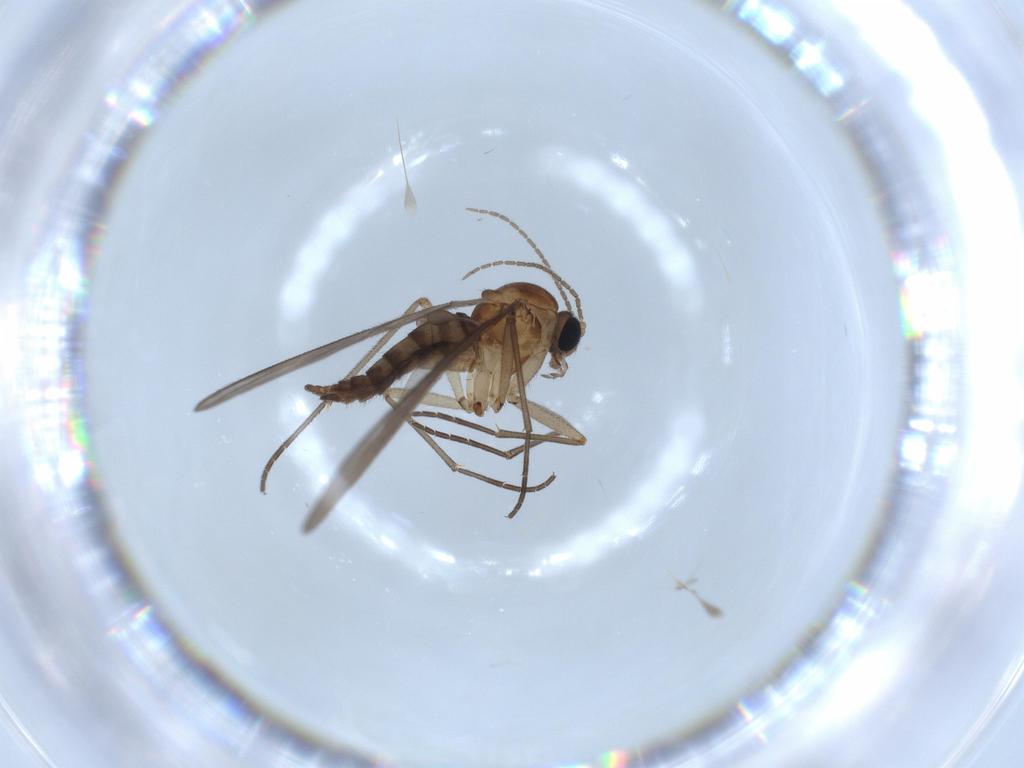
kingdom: Animalia
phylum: Arthropoda
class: Insecta
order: Diptera
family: Sciaridae
